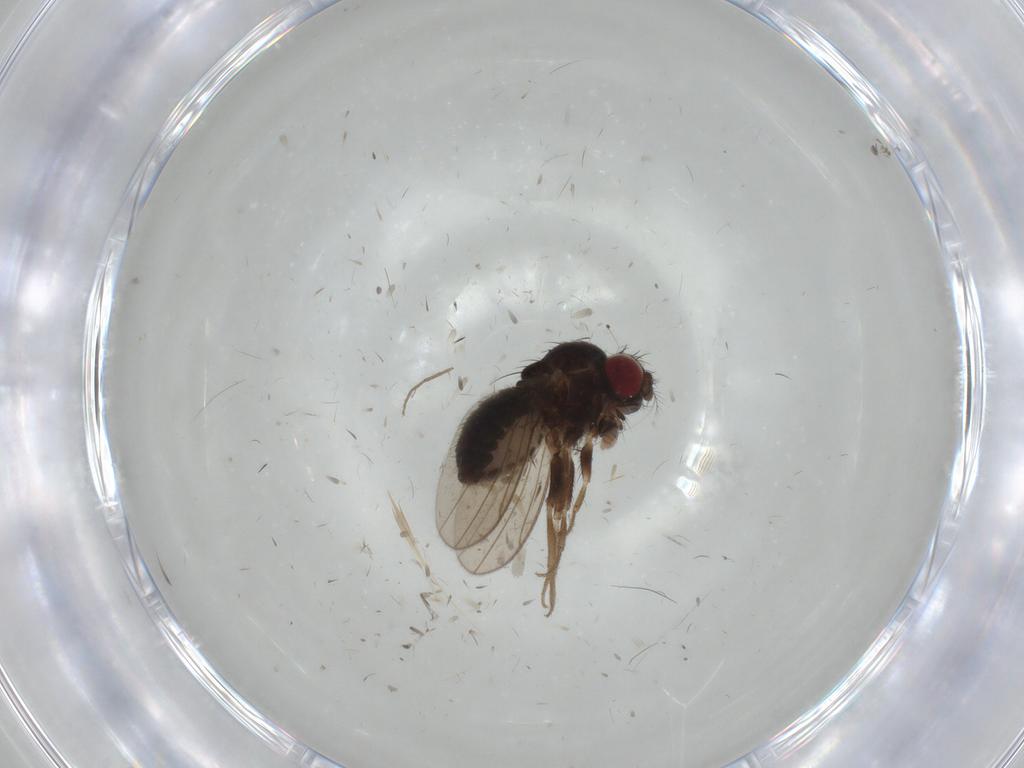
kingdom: Animalia
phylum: Arthropoda
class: Insecta
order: Diptera
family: Drosophilidae
